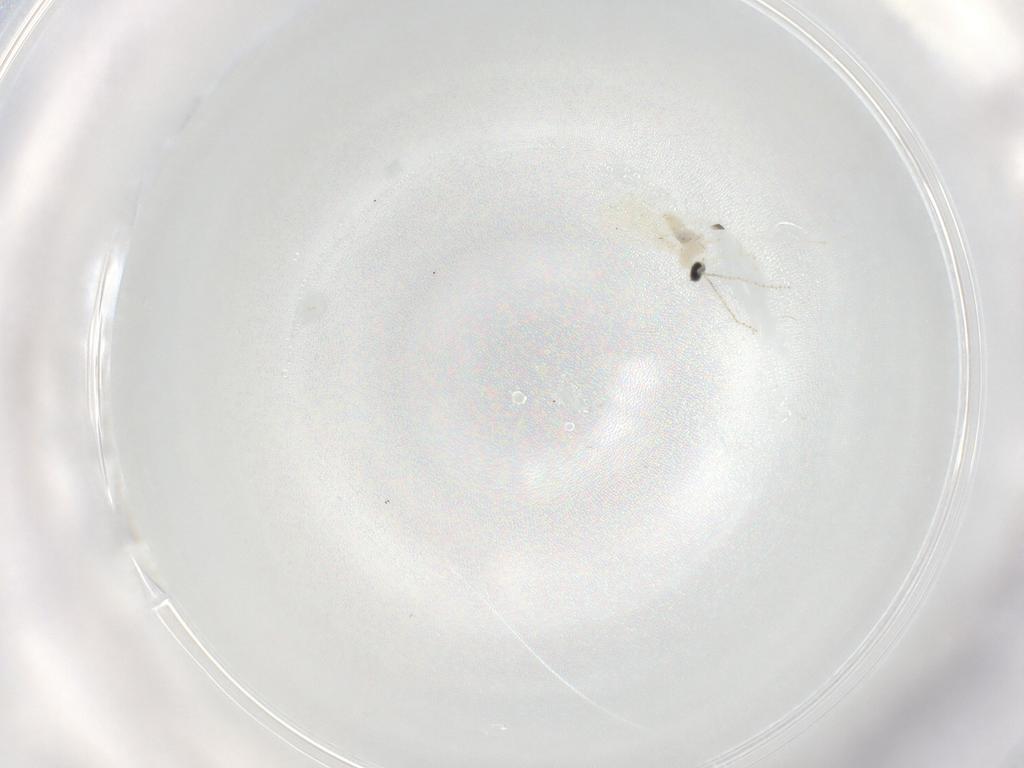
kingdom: Animalia
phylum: Arthropoda
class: Insecta
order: Diptera
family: Cecidomyiidae
